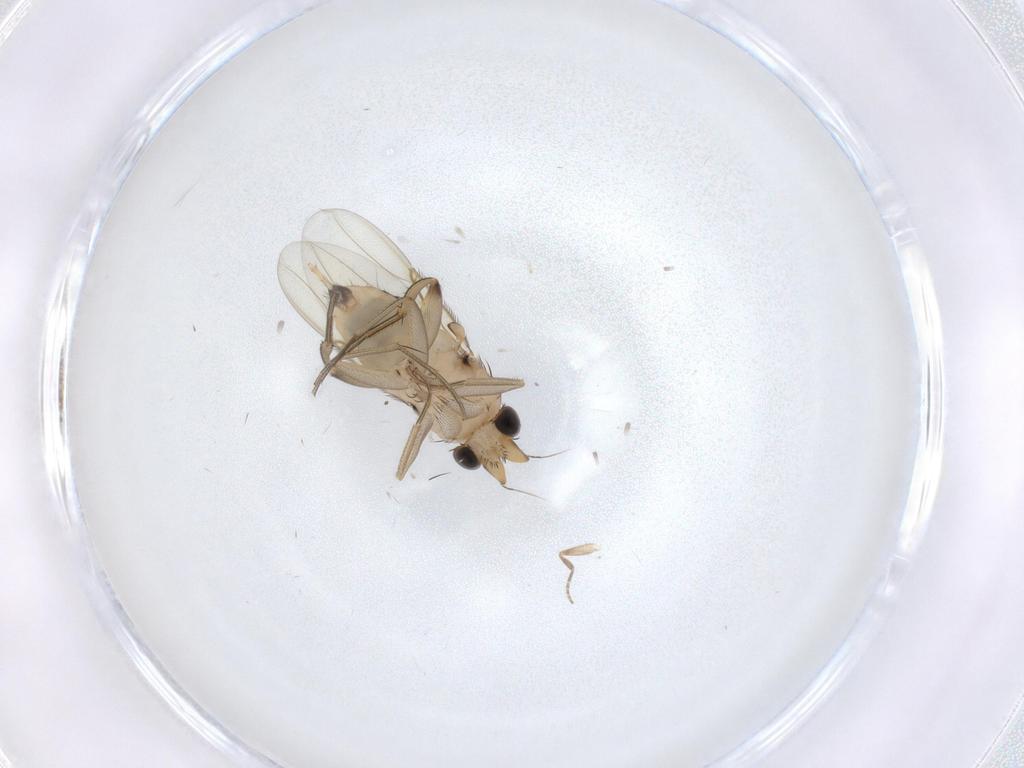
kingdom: Animalia
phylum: Arthropoda
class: Insecta
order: Diptera
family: Phoridae
